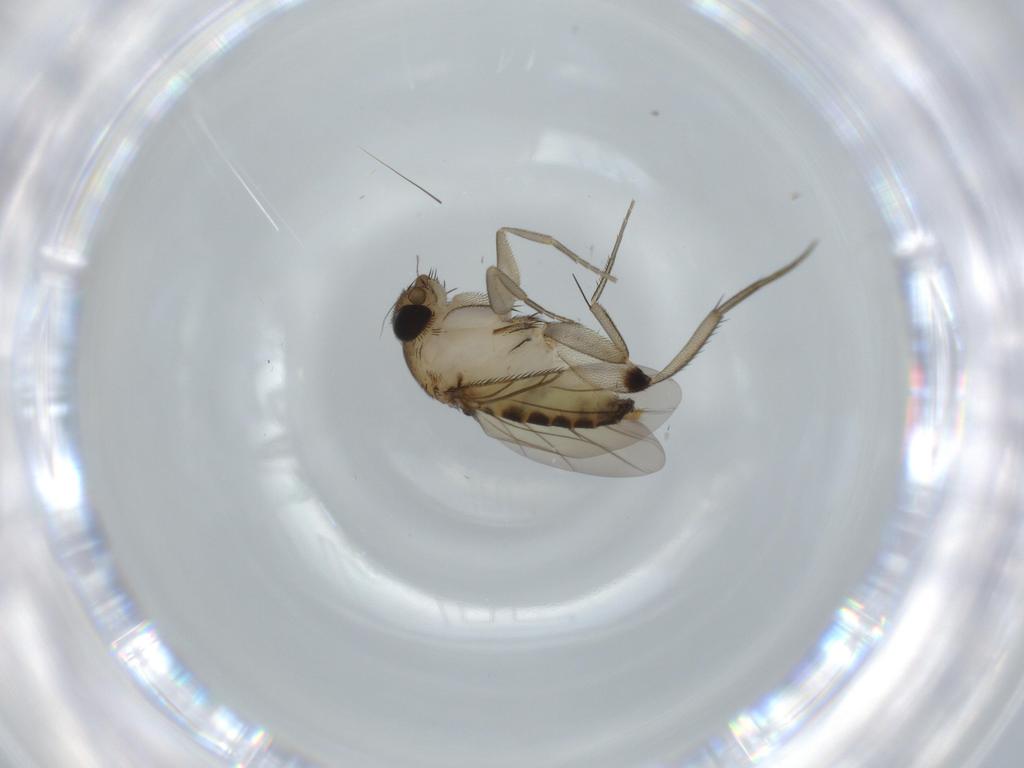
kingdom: Animalia
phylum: Arthropoda
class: Insecta
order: Diptera
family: Phoridae
